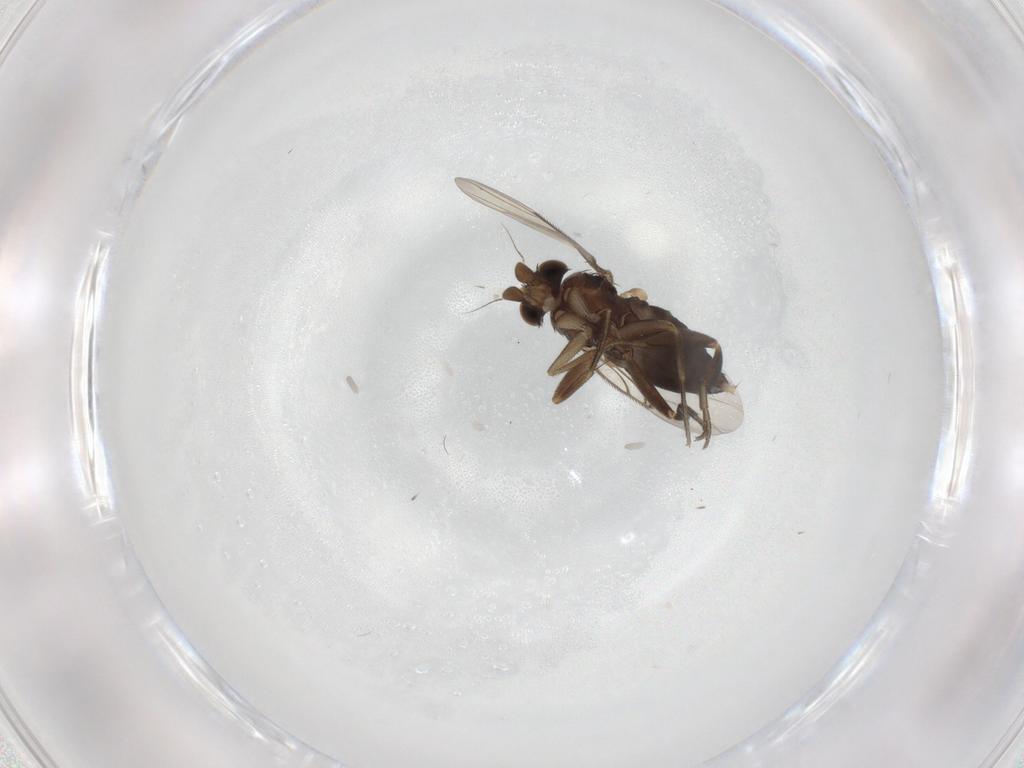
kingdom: Animalia
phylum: Arthropoda
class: Insecta
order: Diptera
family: Phoridae
